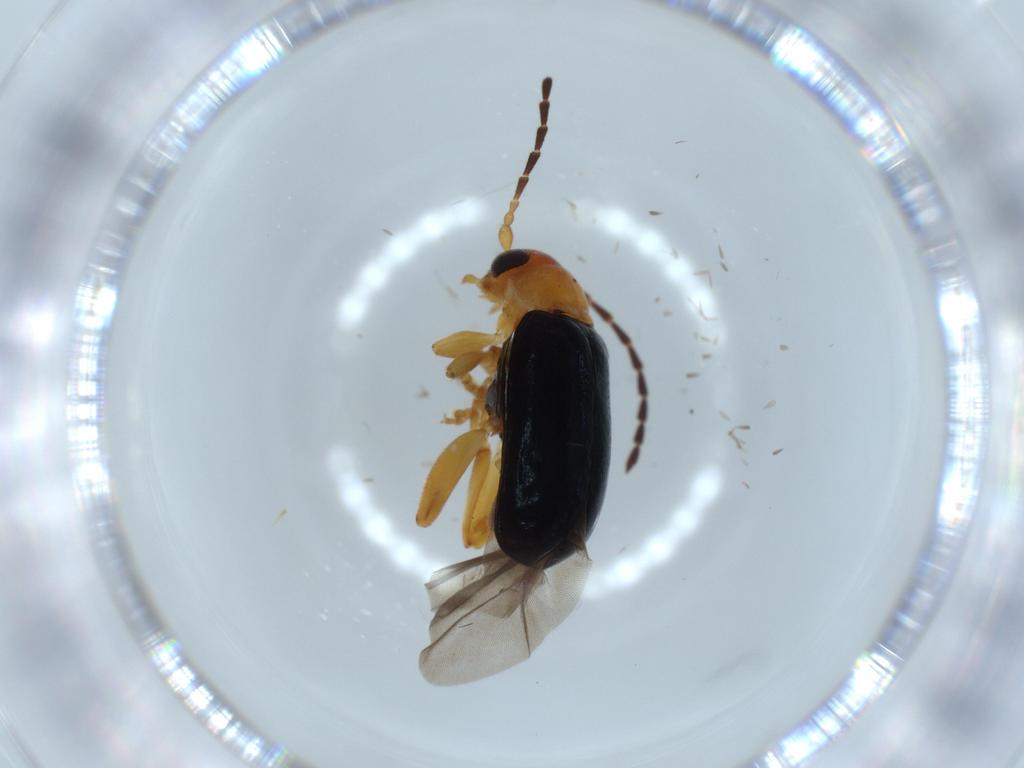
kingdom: Animalia
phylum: Arthropoda
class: Insecta
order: Coleoptera
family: Chrysomelidae
